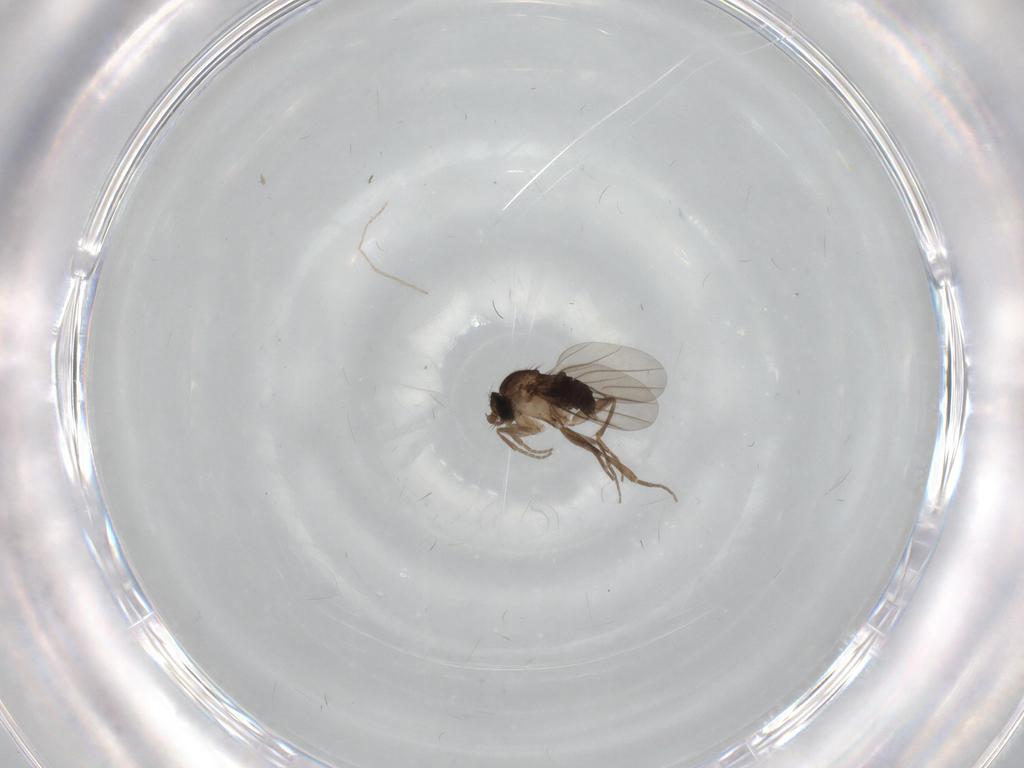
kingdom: Animalia
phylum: Arthropoda
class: Insecta
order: Diptera
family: Chironomidae
